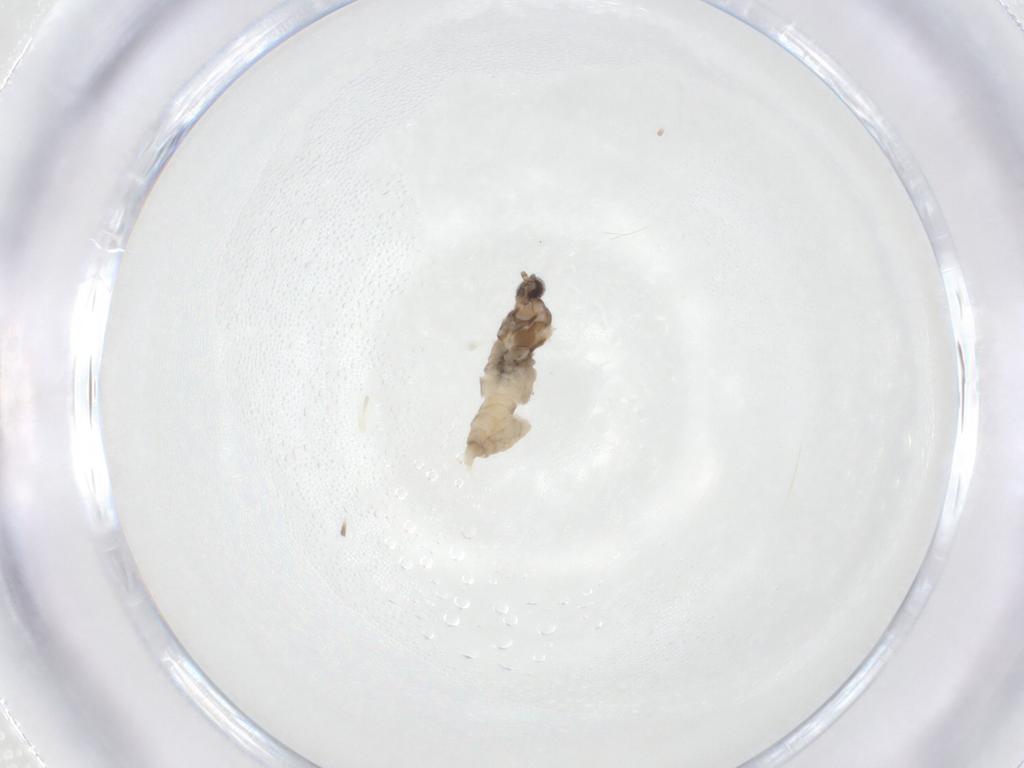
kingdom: Animalia
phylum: Arthropoda
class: Insecta
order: Diptera
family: Cecidomyiidae
